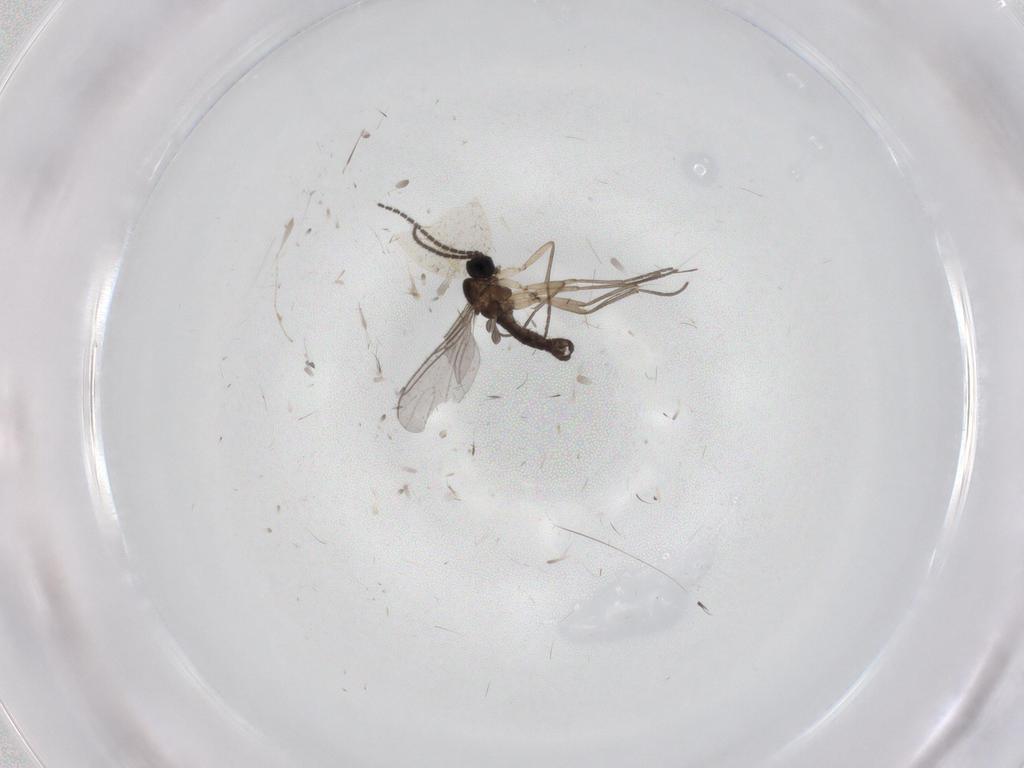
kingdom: Animalia
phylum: Arthropoda
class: Insecta
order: Diptera
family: Sciaridae
